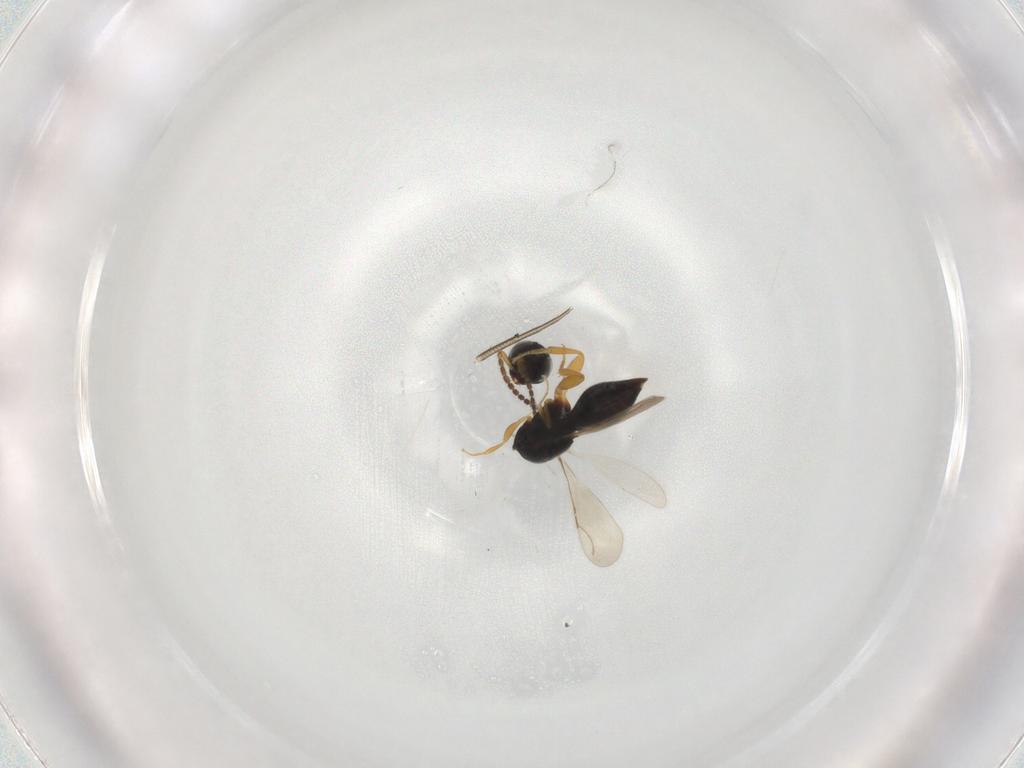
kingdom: Animalia
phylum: Arthropoda
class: Insecta
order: Hymenoptera
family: Scelionidae
